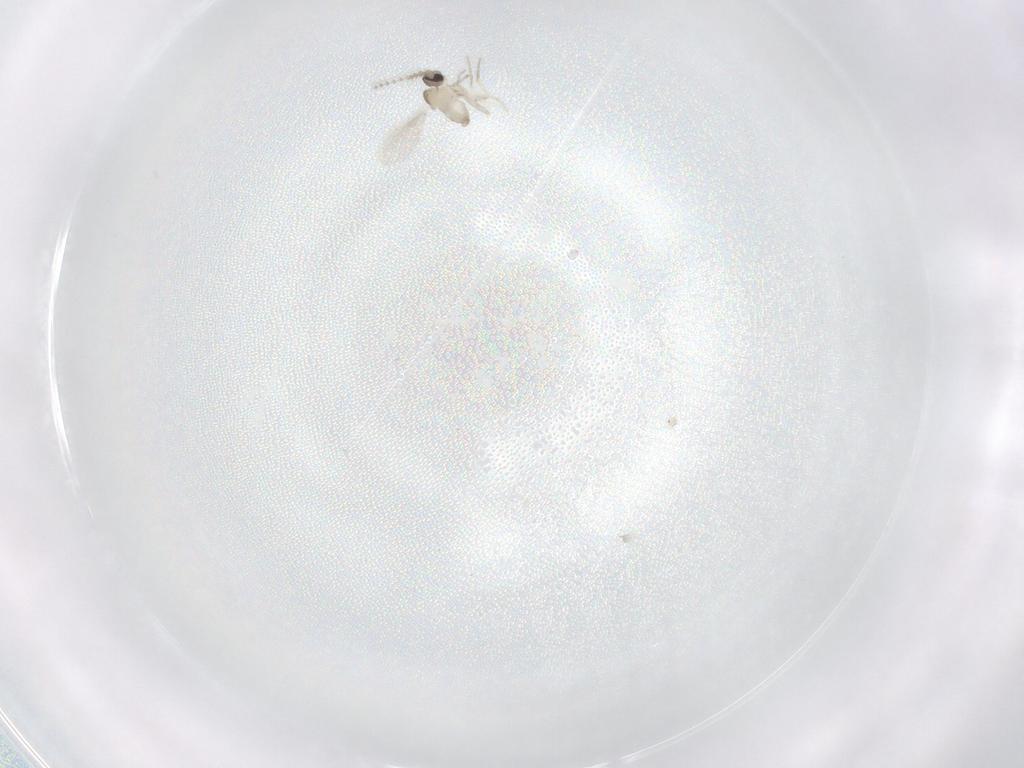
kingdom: Animalia
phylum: Arthropoda
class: Insecta
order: Diptera
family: Cecidomyiidae
